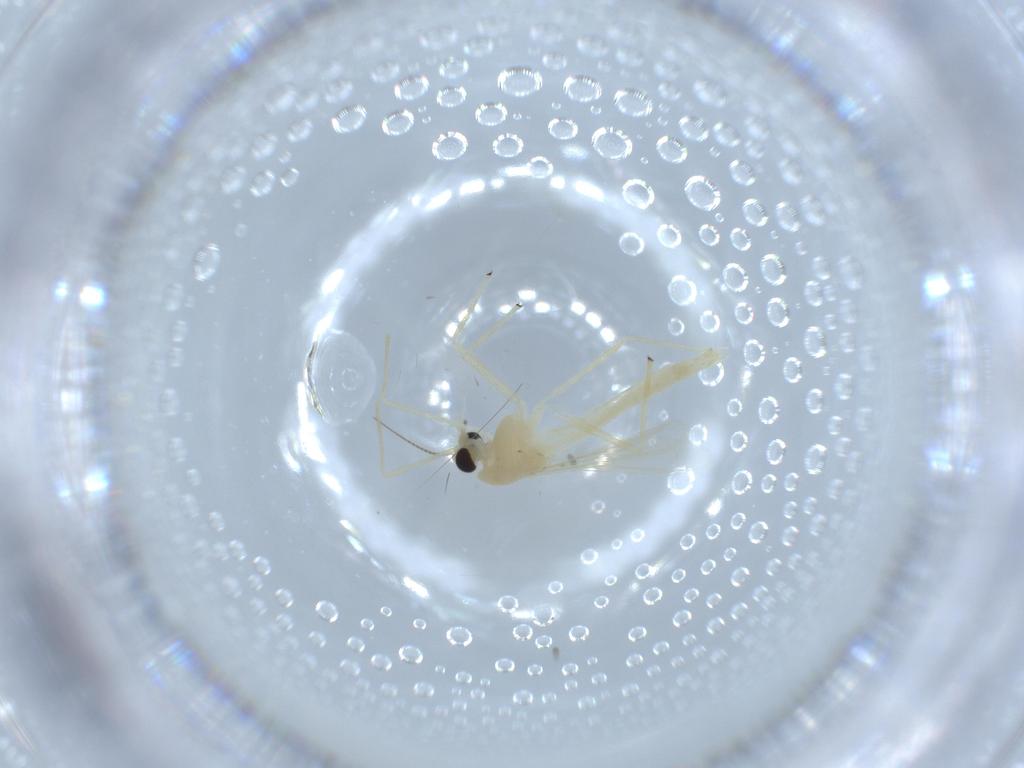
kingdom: Animalia
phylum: Arthropoda
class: Insecta
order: Diptera
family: Chironomidae
